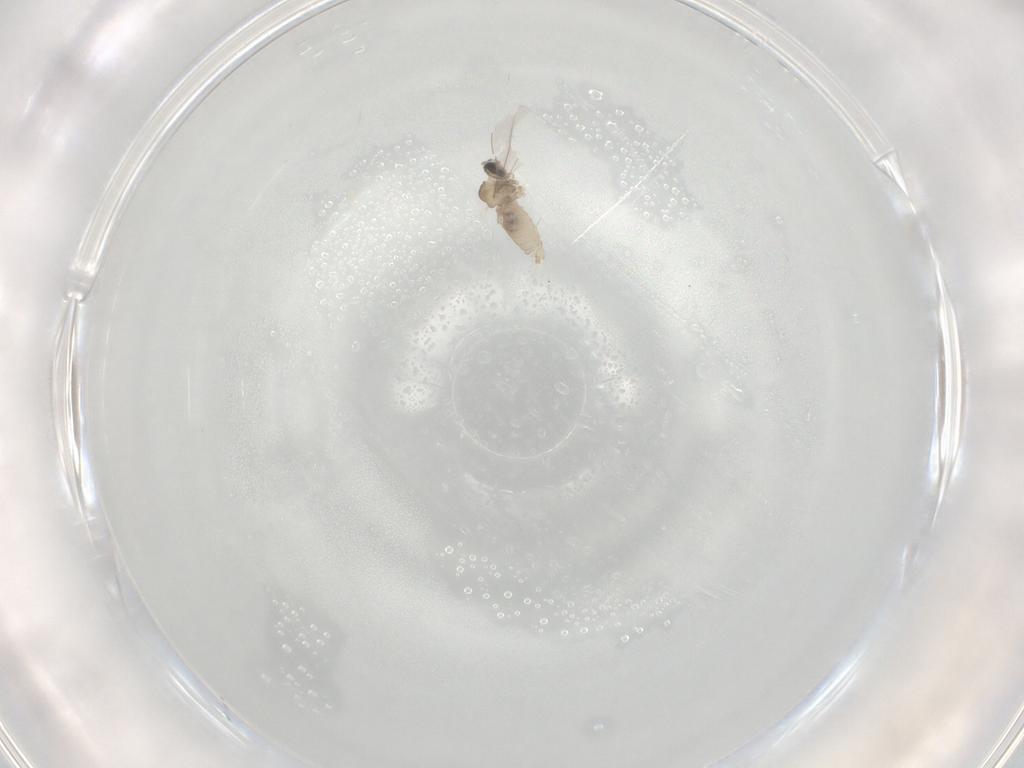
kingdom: Animalia
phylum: Arthropoda
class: Insecta
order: Diptera
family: Cecidomyiidae
